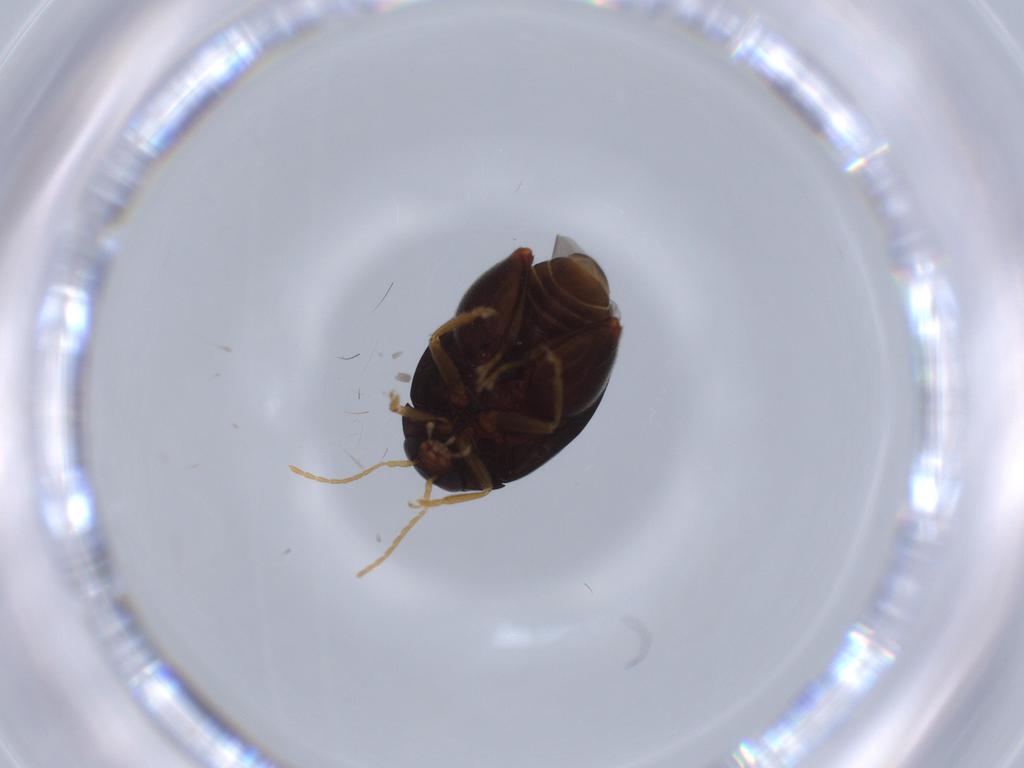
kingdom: Animalia
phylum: Arthropoda
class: Insecta
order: Coleoptera
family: Chrysomelidae
